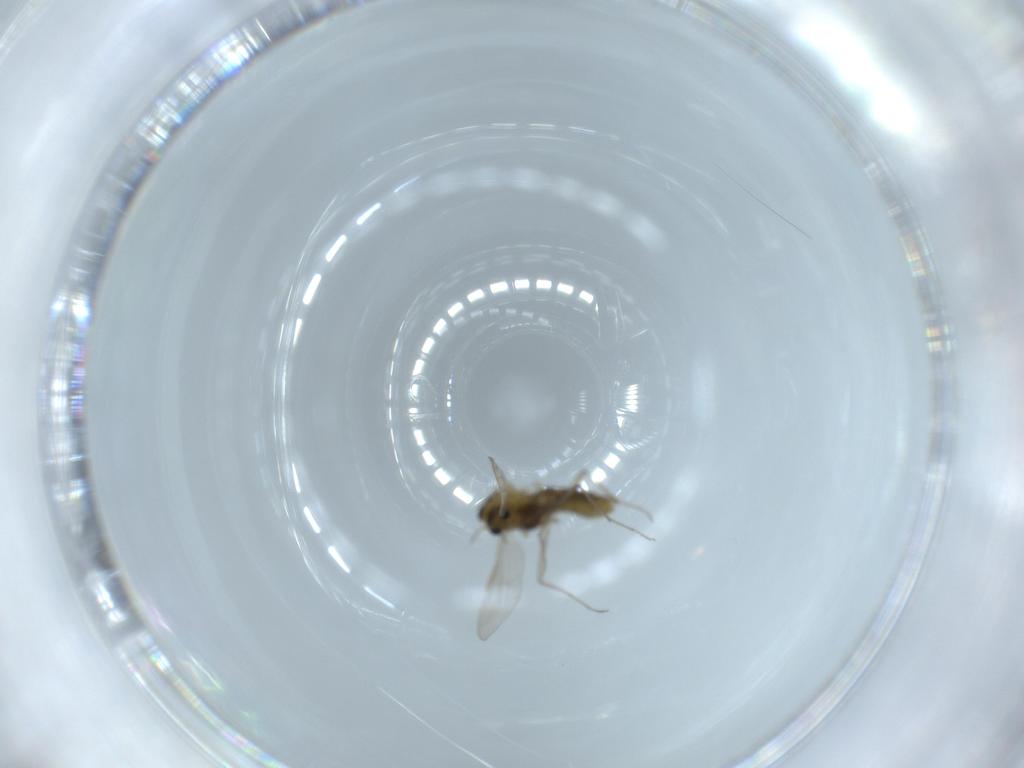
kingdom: Animalia
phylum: Arthropoda
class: Insecta
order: Diptera
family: Chironomidae
